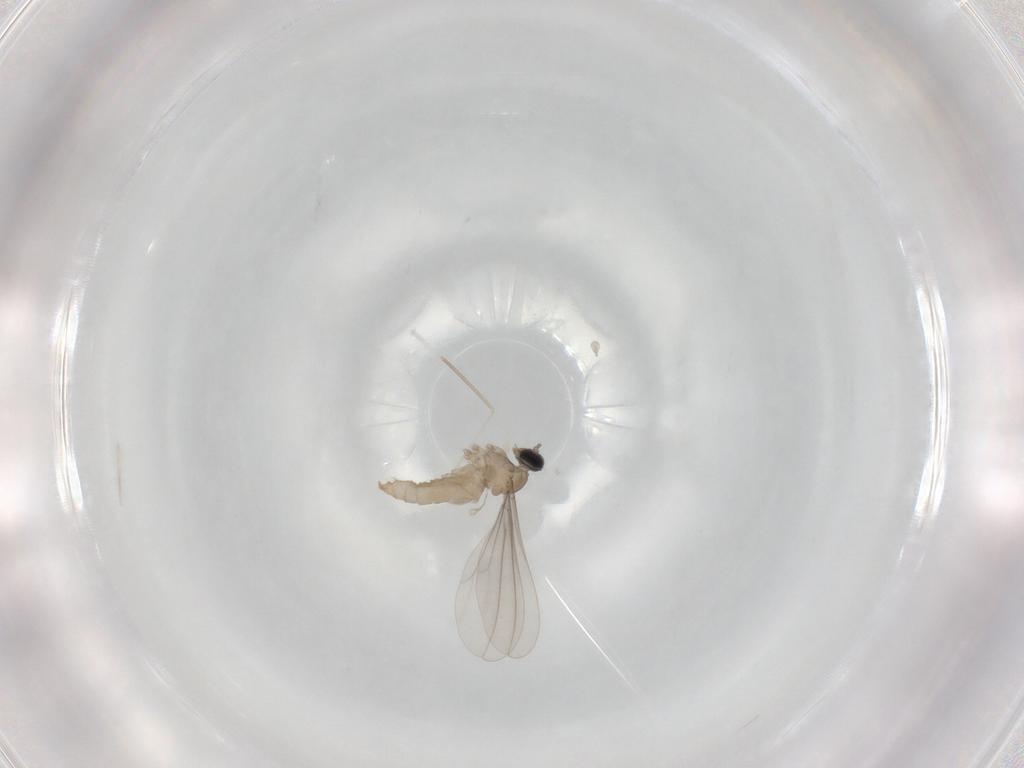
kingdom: Animalia
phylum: Arthropoda
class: Insecta
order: Diptera
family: Cecidomyiidae
